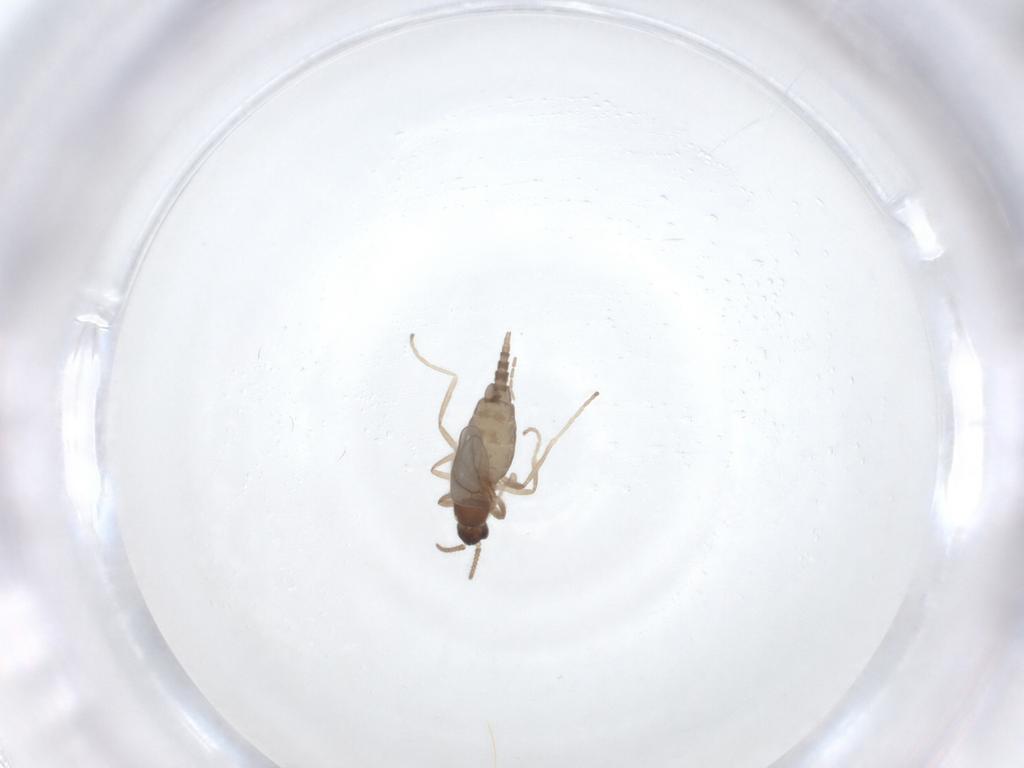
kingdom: Animalia
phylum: Arthropoda
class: Insecta
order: Diptera
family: Cecidomyiidae
